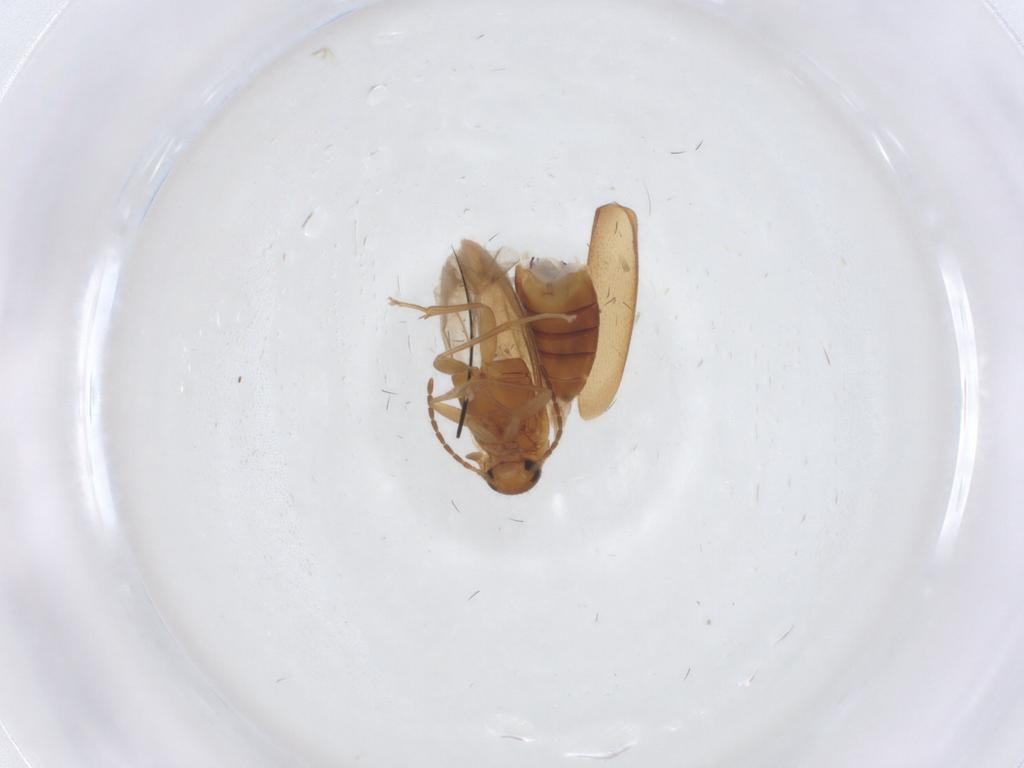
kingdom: Animalia
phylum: Arthropoda
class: Insecta
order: Coleoptera
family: Scraptiidae
